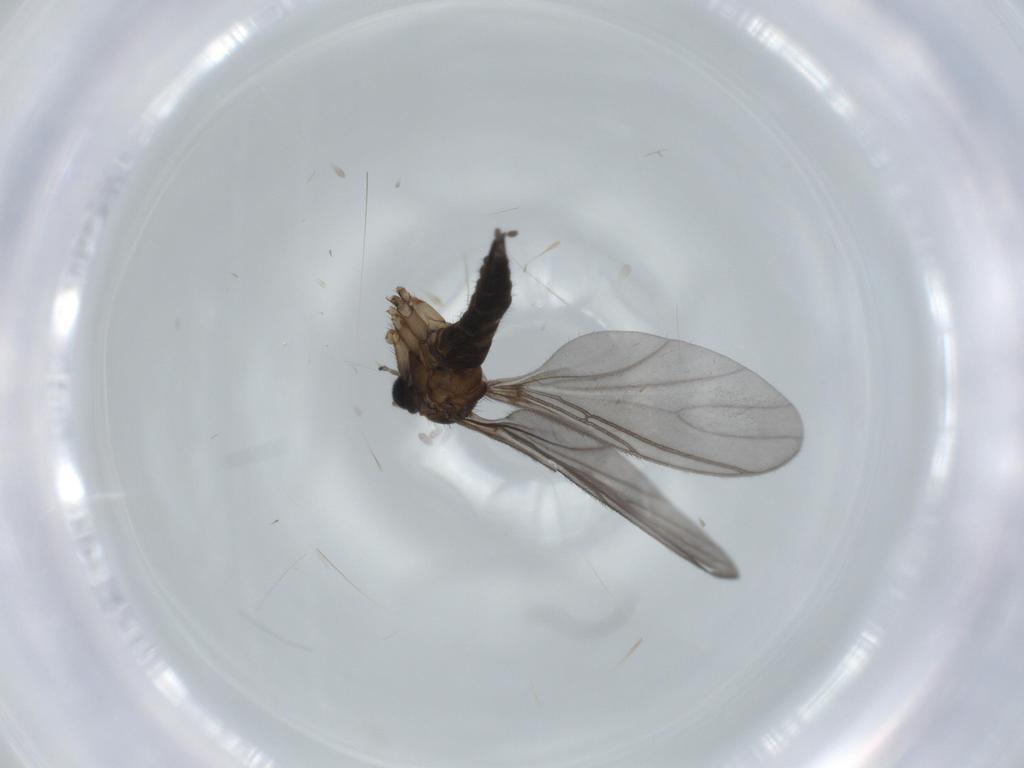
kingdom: Animalia
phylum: Arthropoda
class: Insecta
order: Diptera
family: Sciaridae
